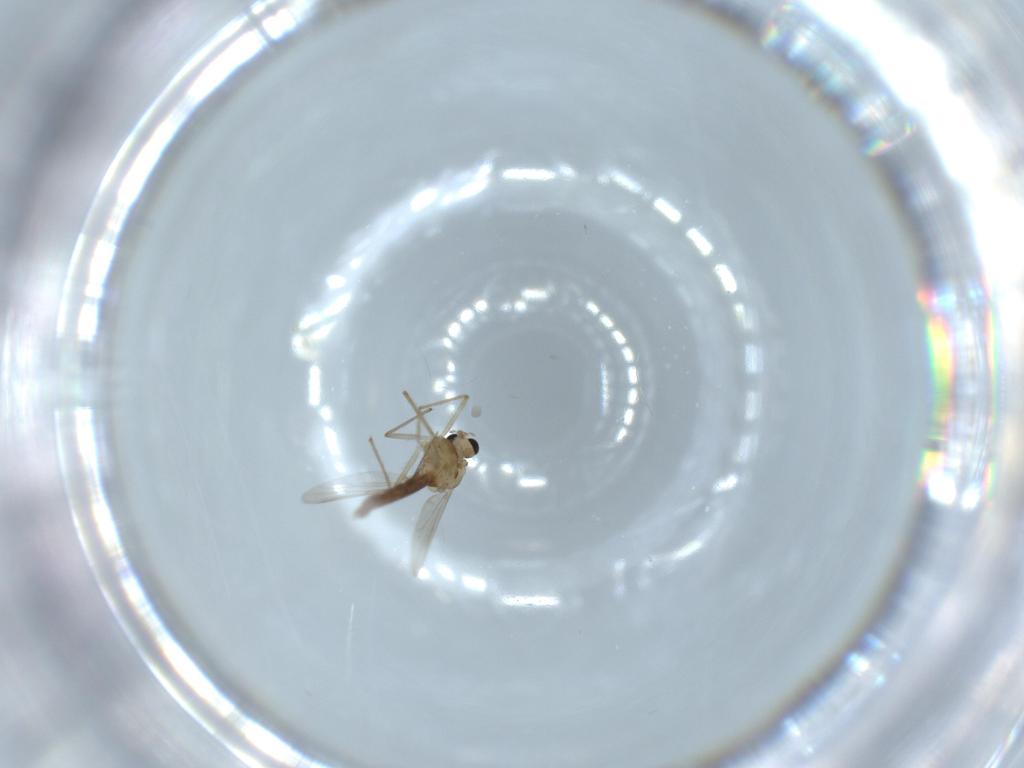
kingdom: Animalia
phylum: Arthropoda
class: Insecta
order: Diptera
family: Chironomidae
